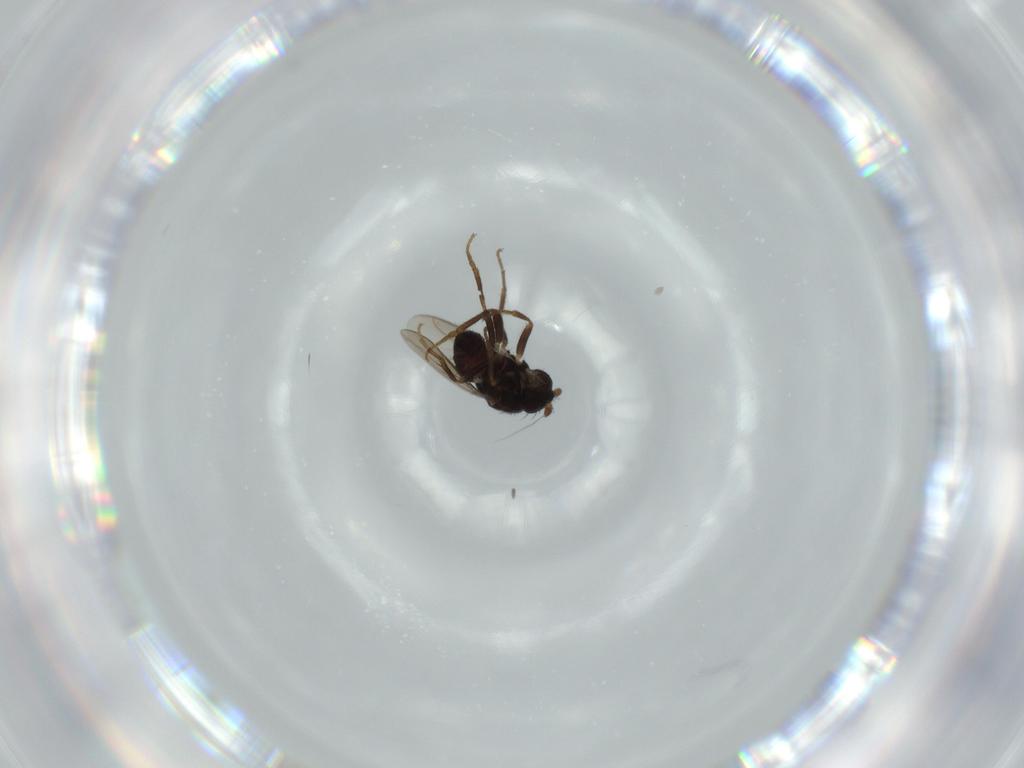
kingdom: Animalia
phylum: Arthropoda
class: Insecta
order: Diptera
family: Sphaeroceridae
